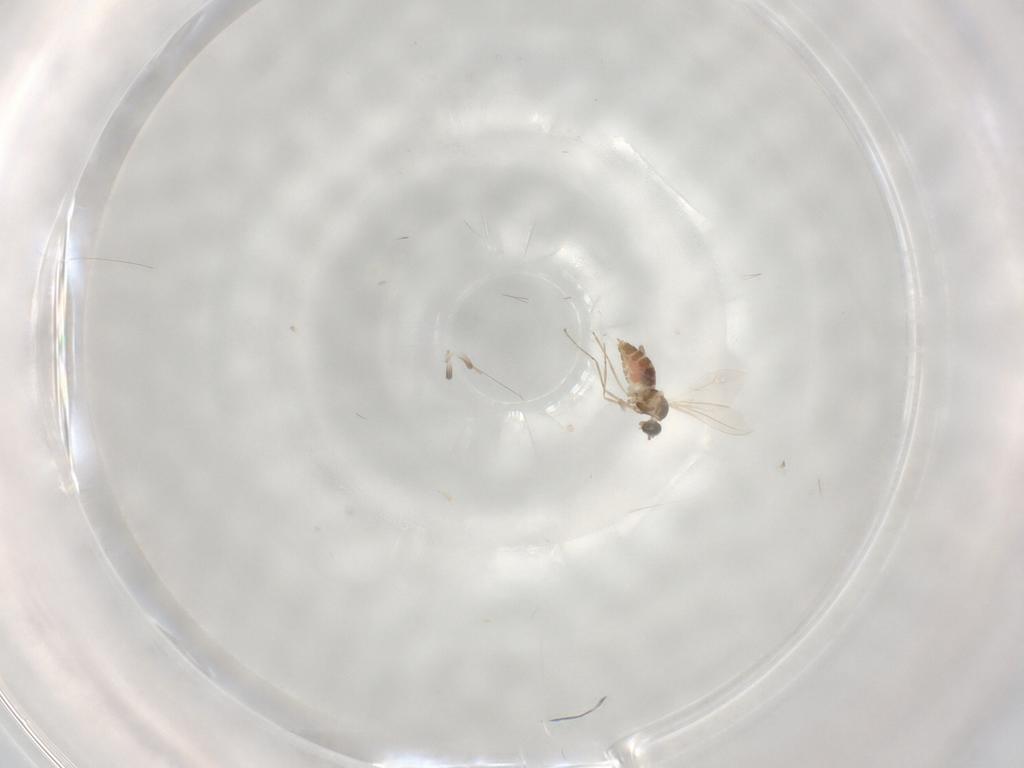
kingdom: Animalia
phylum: Arthropoda
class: Insecta
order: Diptera
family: Cecidomyiidae
